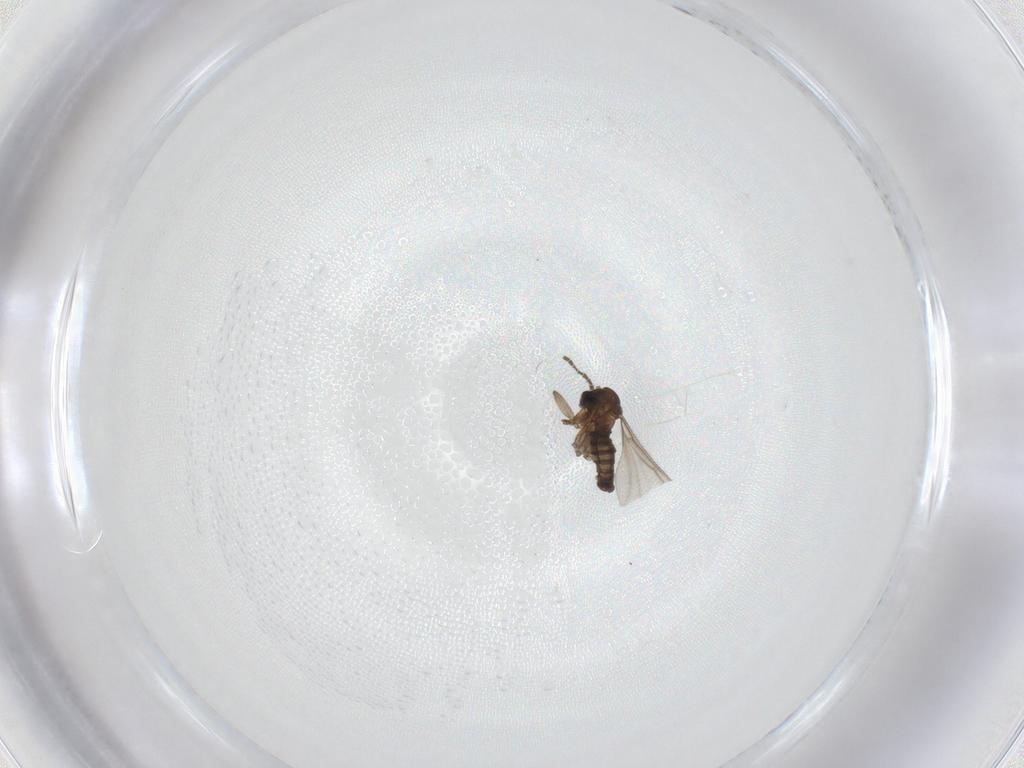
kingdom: Animalia
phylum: Arthropoda
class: Insecta
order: Diptera
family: Sciaridae
